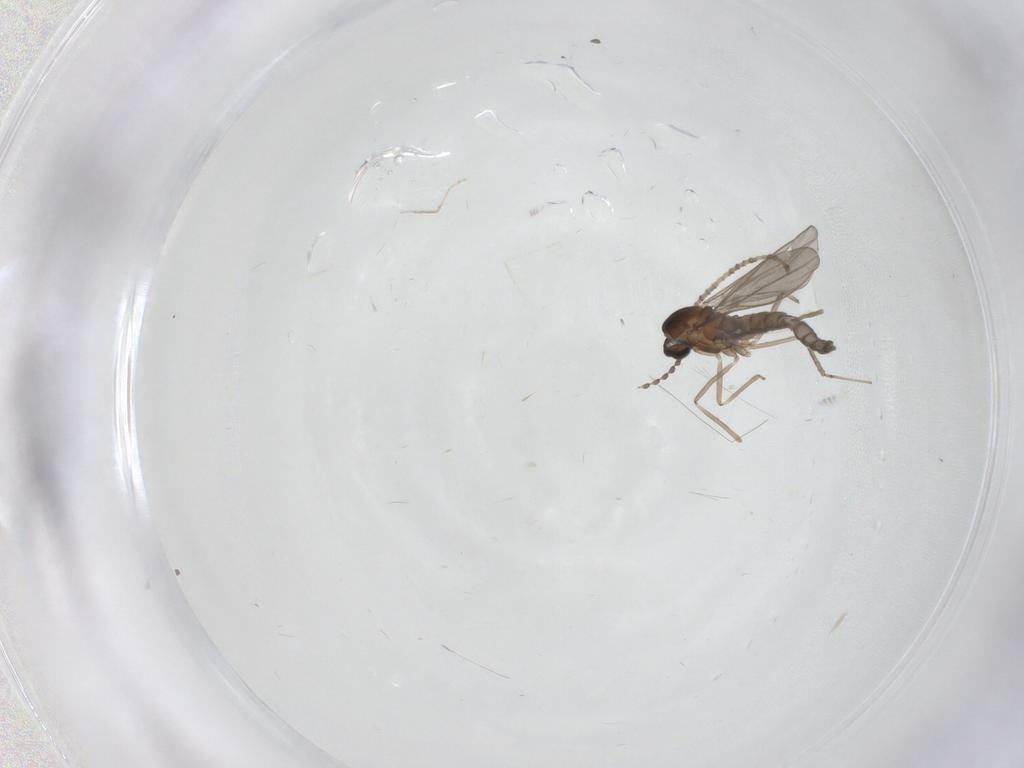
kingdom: Animalia
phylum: Arthropoda
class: Insecta
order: Diptera
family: Cecidomyiidae
